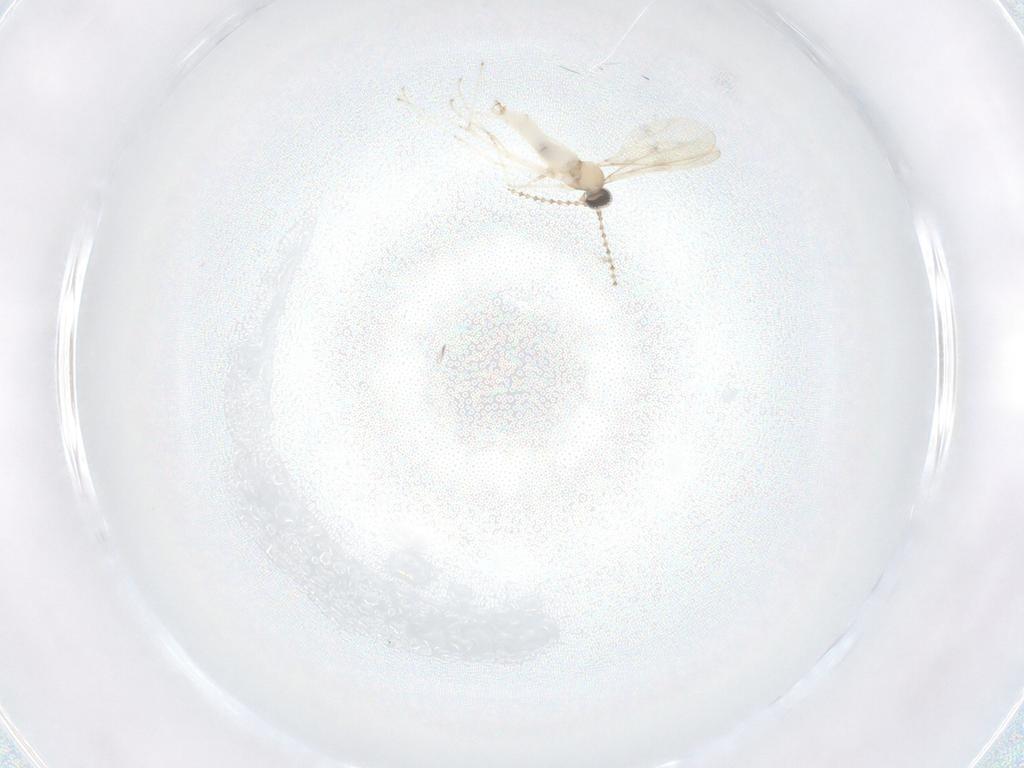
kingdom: Animalia
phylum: Arthropoda
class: Insecta
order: Diptera
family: Cecidomyiidae
